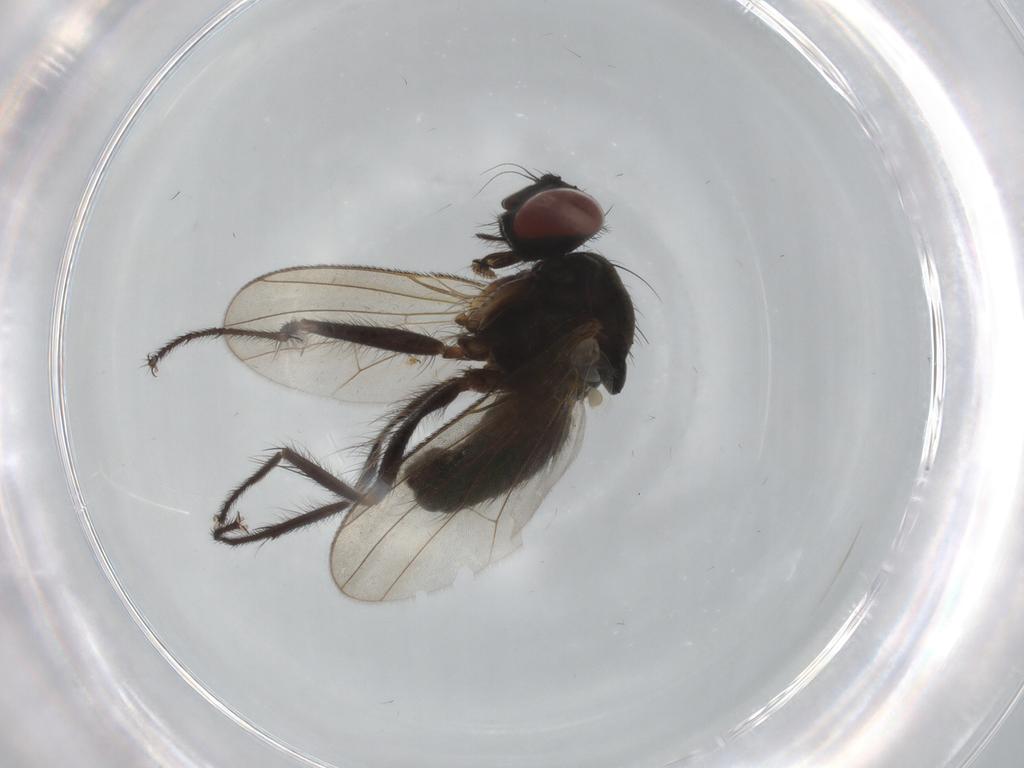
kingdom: Animalia
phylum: Arthropoda
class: Insecta
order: Diptera
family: Muscidae
